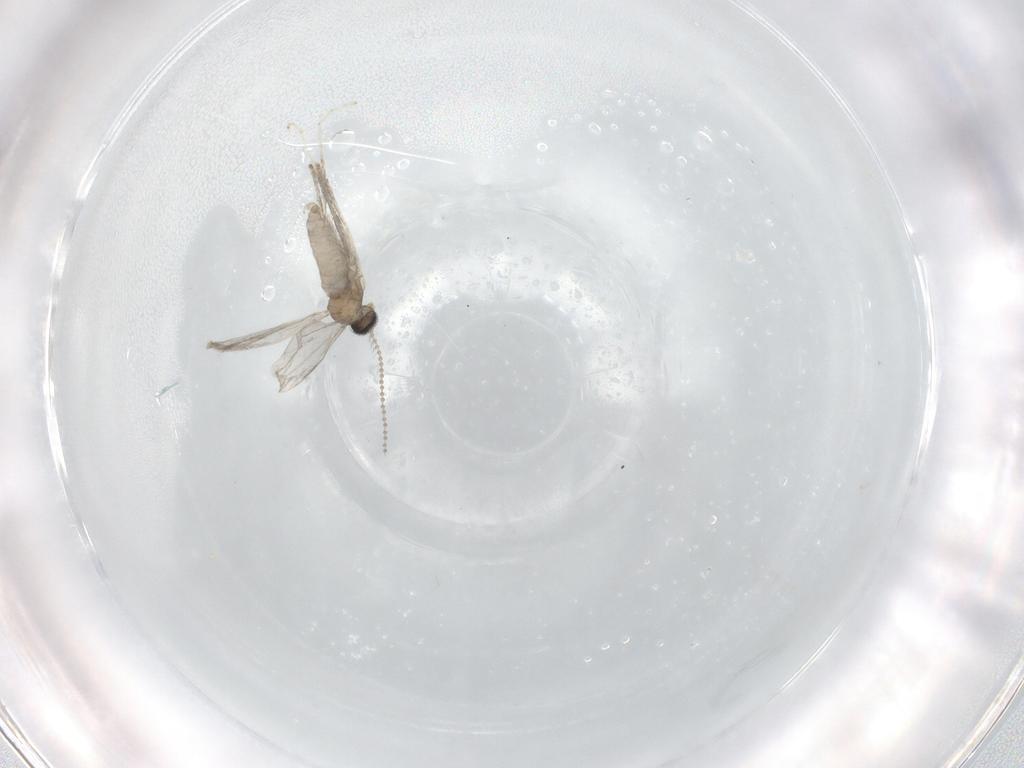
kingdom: Animalia
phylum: Arthropoda
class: Insecta
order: Diptera
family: Cecidomyiidae
